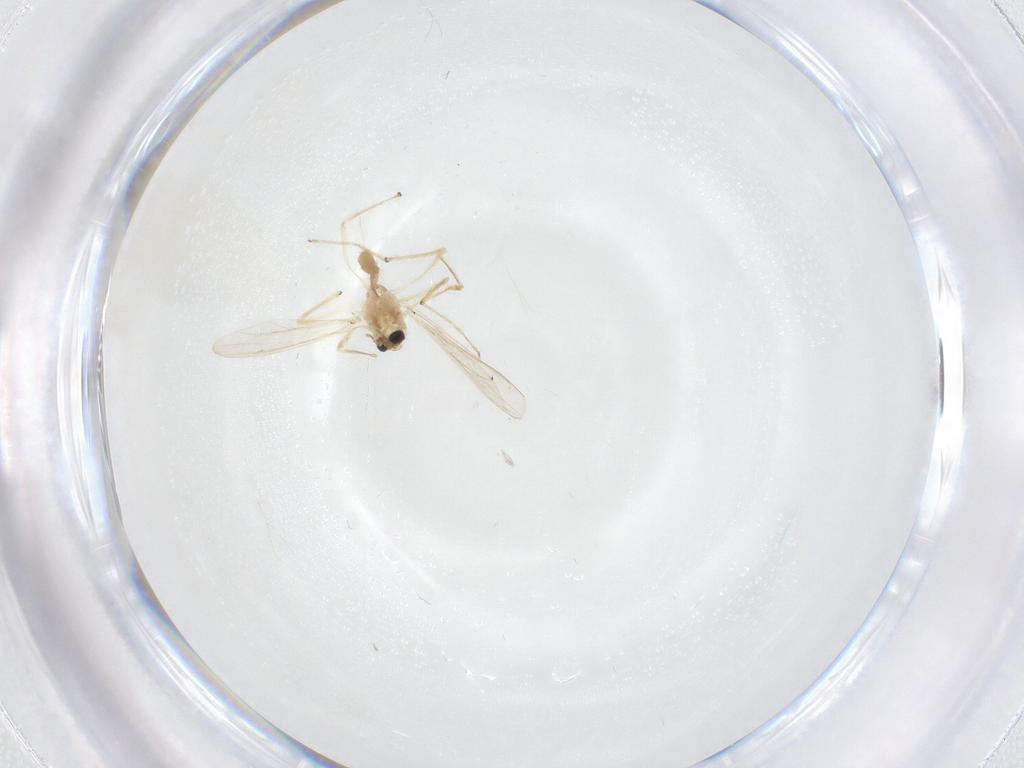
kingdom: Animalia
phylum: Arthropoda
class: Insecta
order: Diptera
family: Chironomidae
